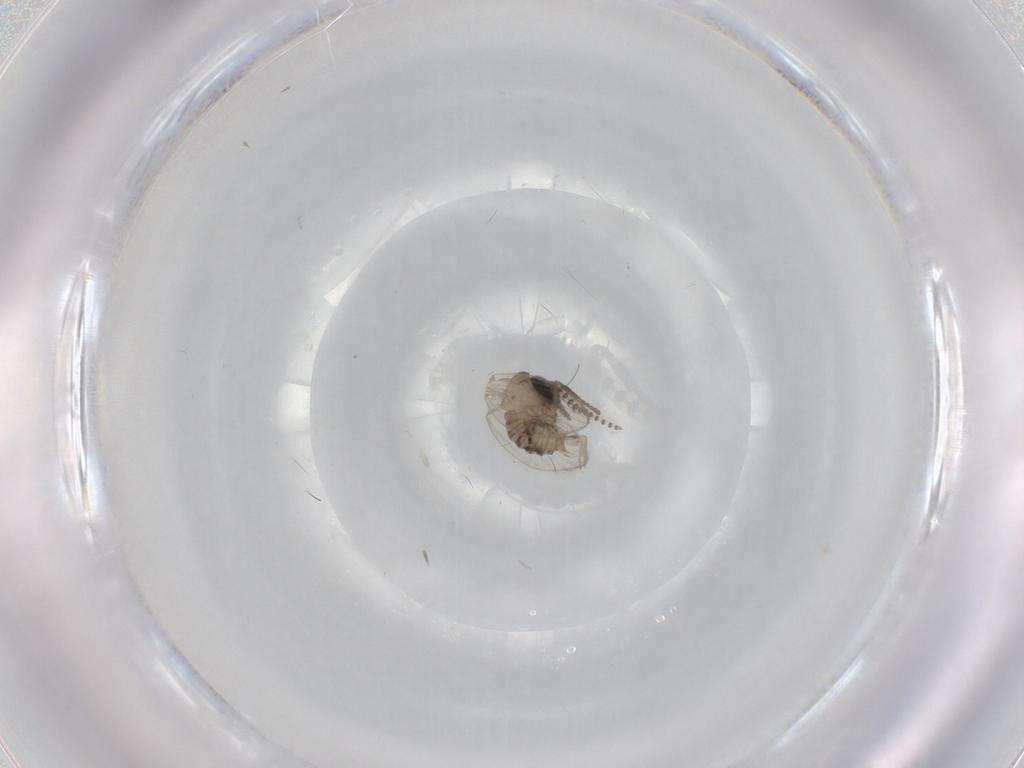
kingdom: Animalia
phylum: Arthropoda
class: Insecta
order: Diptera
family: Psychodidae
